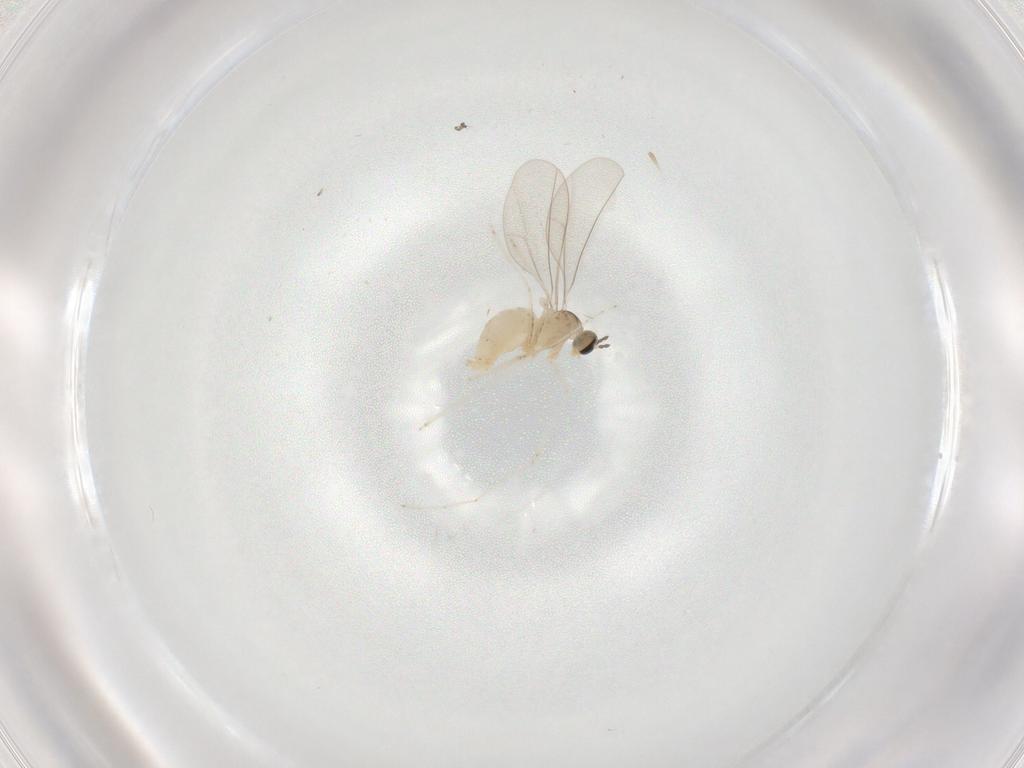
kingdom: Animalia
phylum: Arthropoda
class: Insecta
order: Diptera
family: Cecidomyiidae
